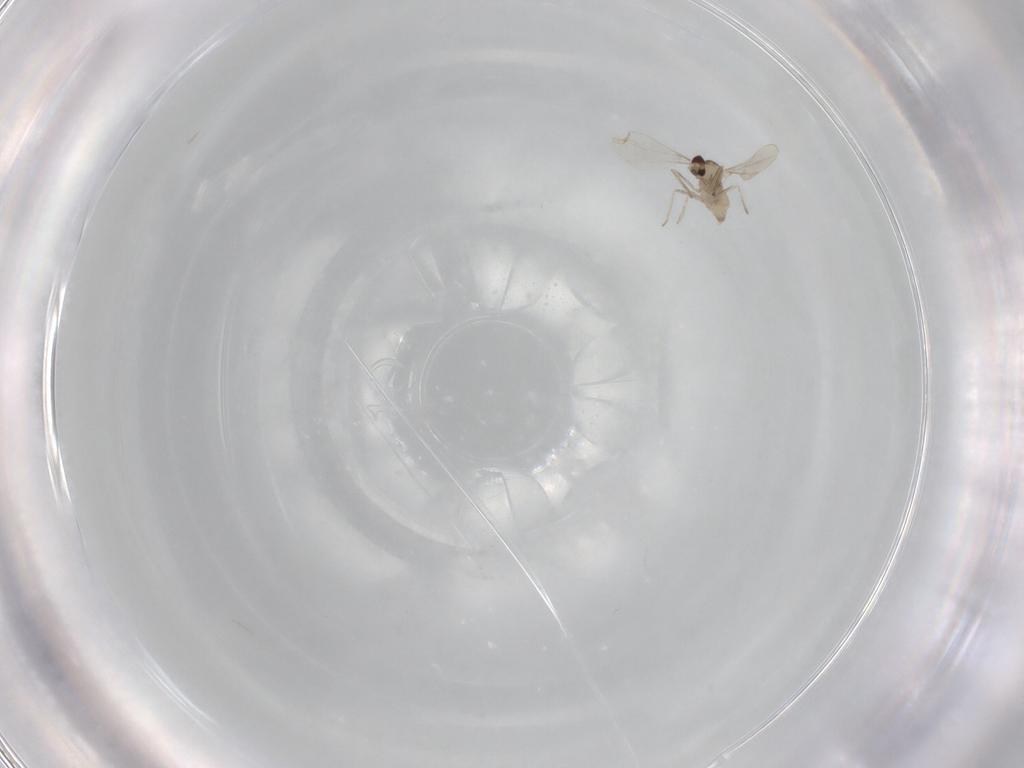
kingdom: Animalia
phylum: Arthropoda
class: Insecta
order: Diptera
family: Cecidomyiidae
